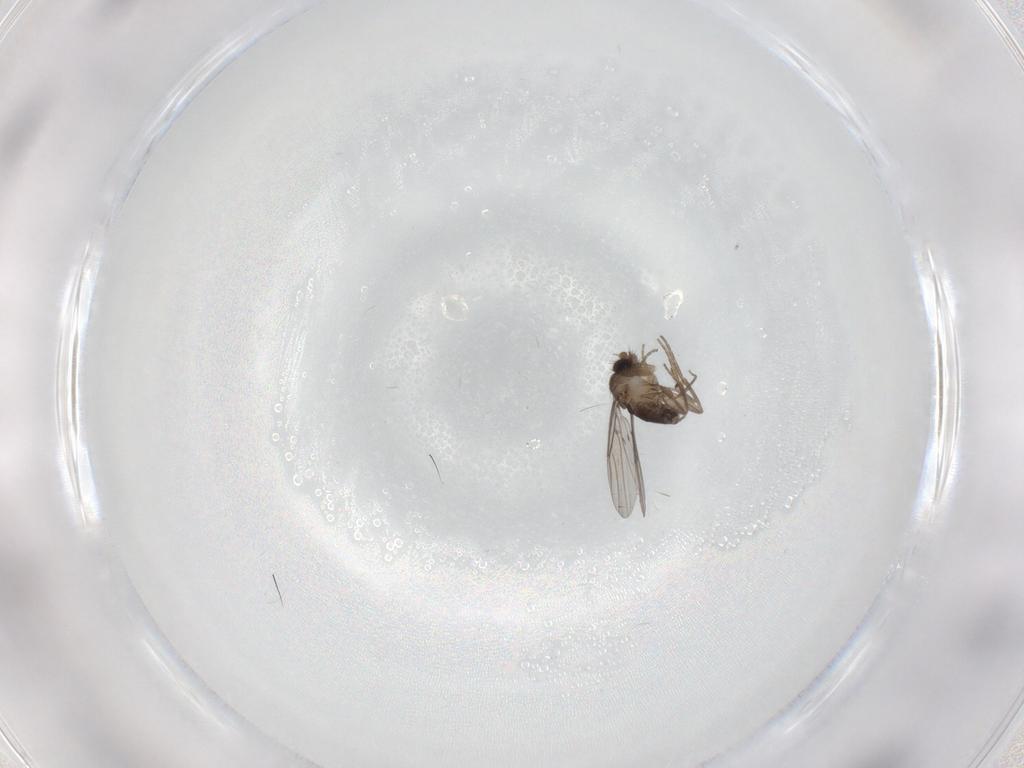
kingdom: Animalia
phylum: Arthropoda
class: Insecta
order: Diptera
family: Phoridae
